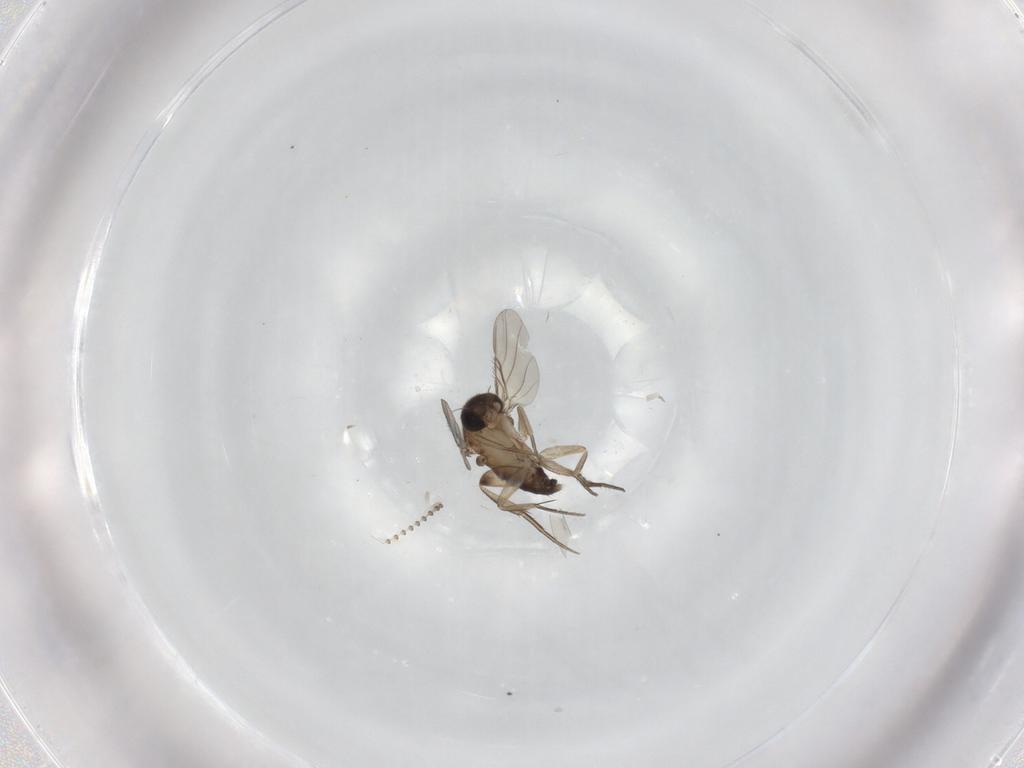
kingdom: Animalia
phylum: Arthropoda
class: Insecta
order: Diptera
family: Phoridae
